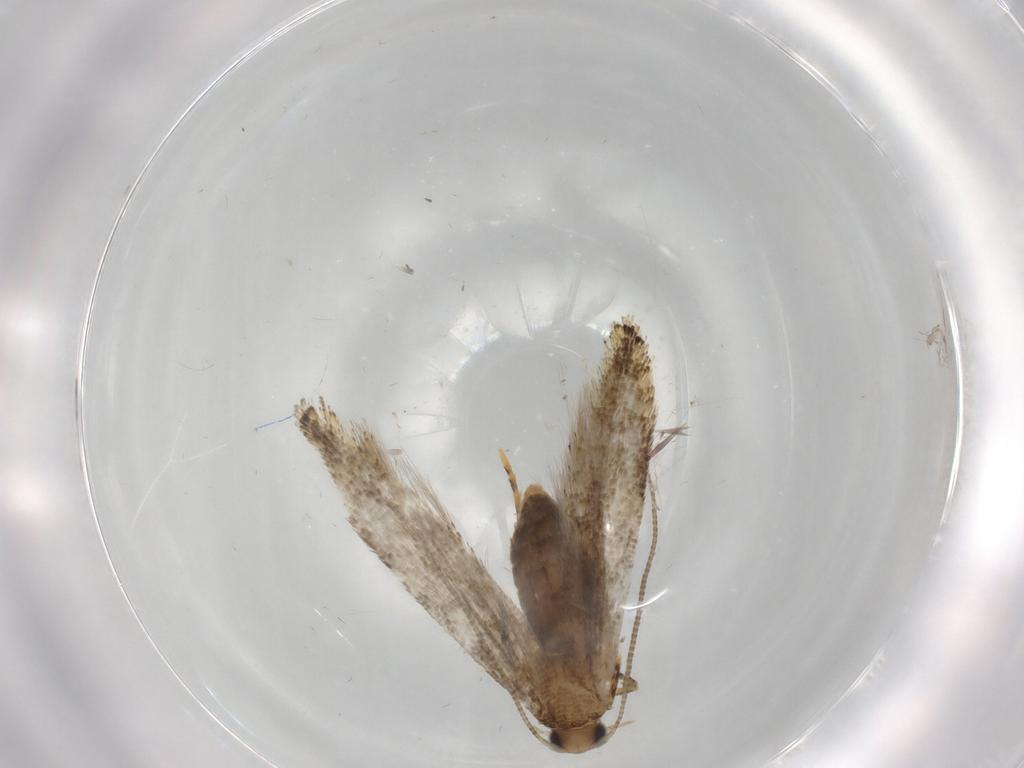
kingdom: Animalia
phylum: Arthropoda
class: Insecta
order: Lepidoptera
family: Tineidae
